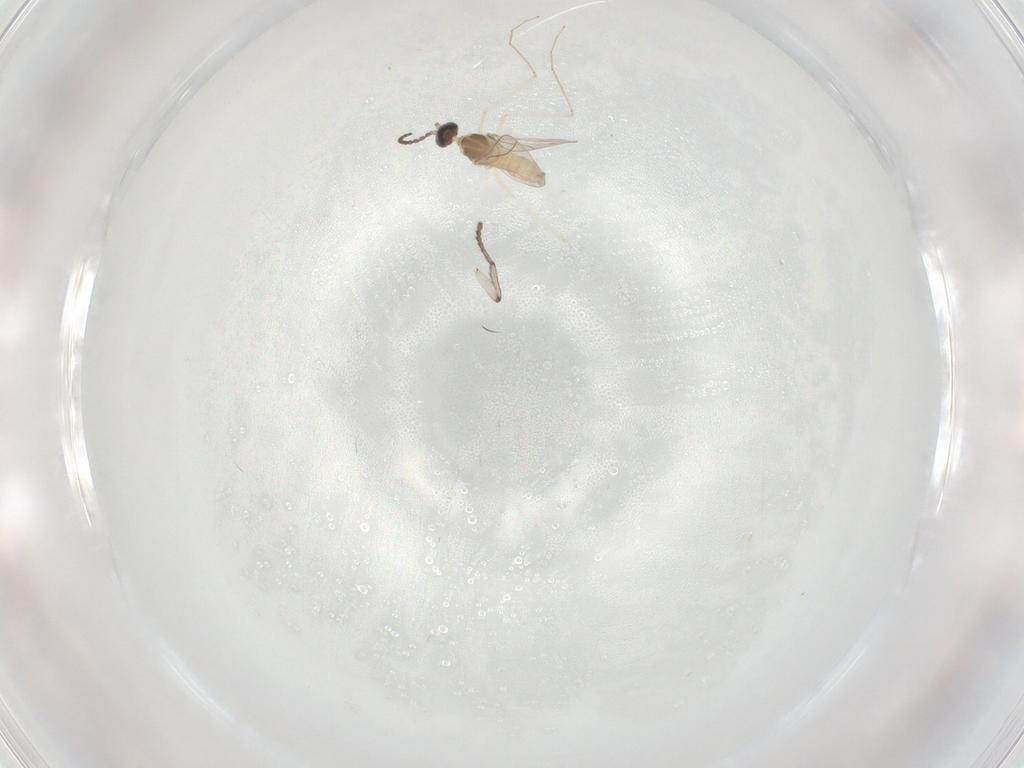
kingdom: Animalia
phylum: Arthropoda
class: Insecta
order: Diptera
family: Cecidomyiidae
